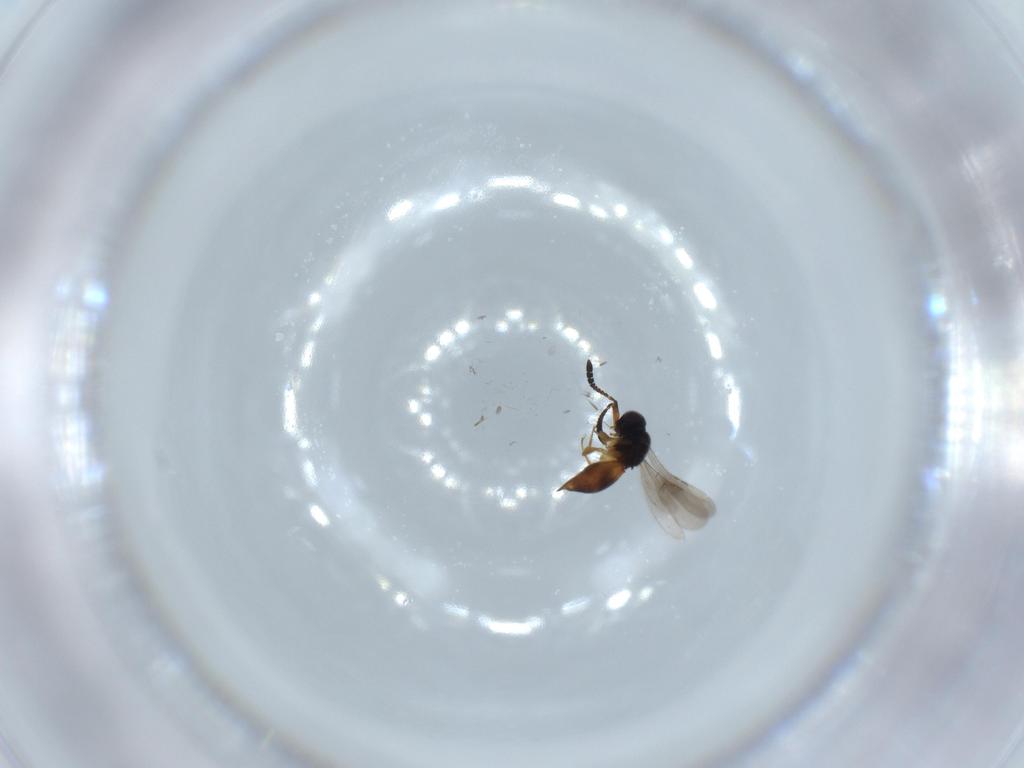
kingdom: Animalia
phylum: Arthropoda
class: Insecta
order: Hymenoptera
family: Ceraphronidae
